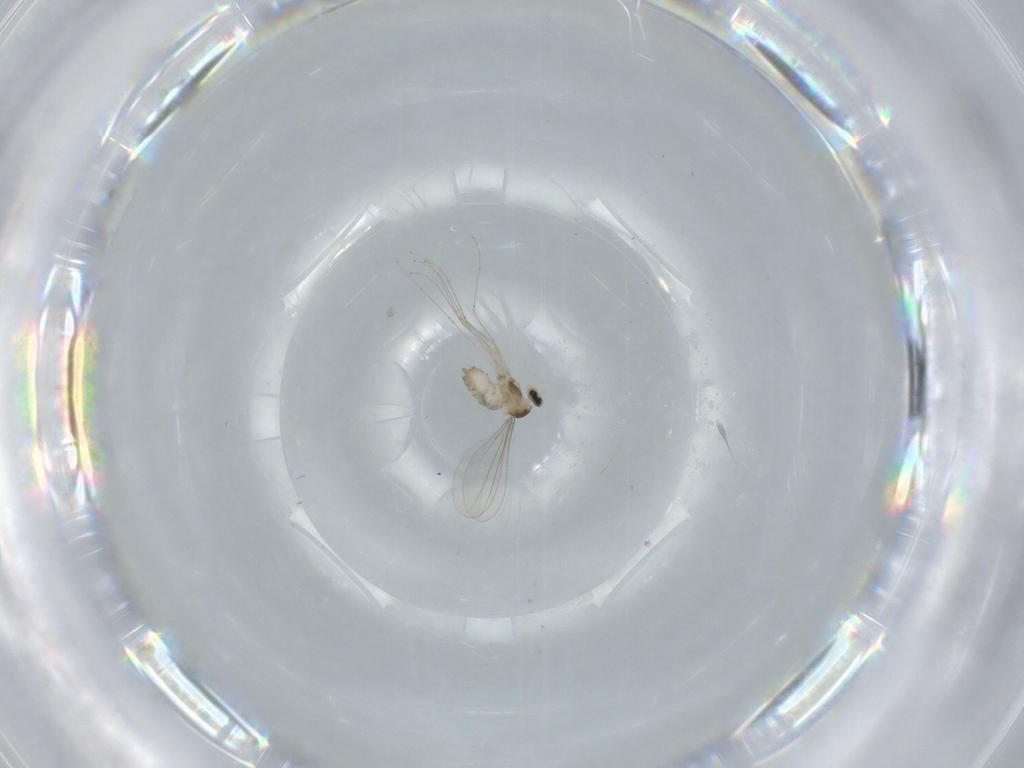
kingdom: Animalia
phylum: Arthropoda
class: Insecta
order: Diptera
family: Cecidomyiidae
